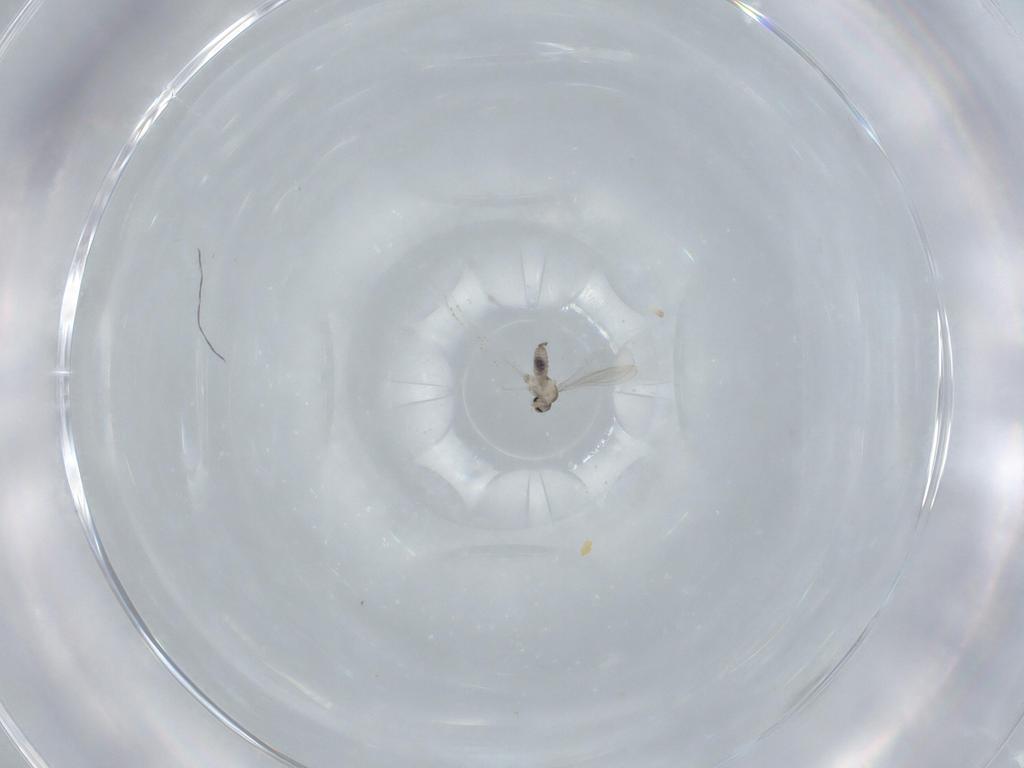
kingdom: Animalia
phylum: Arthropoda
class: Insecta
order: Diptera
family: Cecidomyiidae
